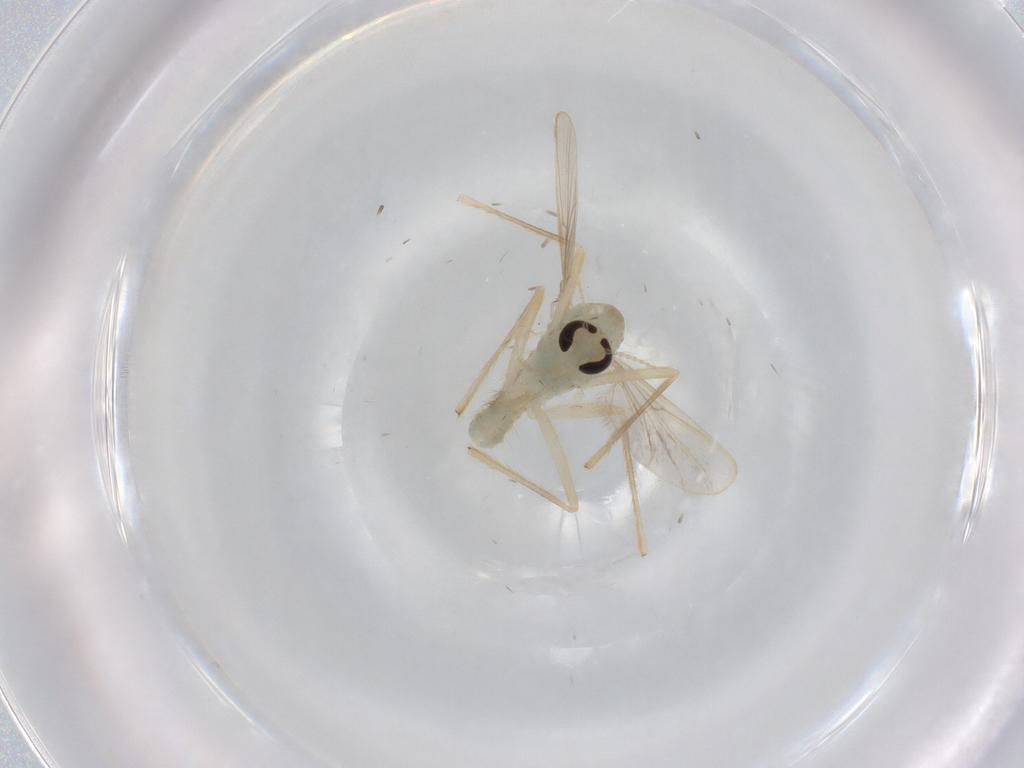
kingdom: Animalia
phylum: Arthropoda
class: Insecta
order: Diptera
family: Chironomidae
